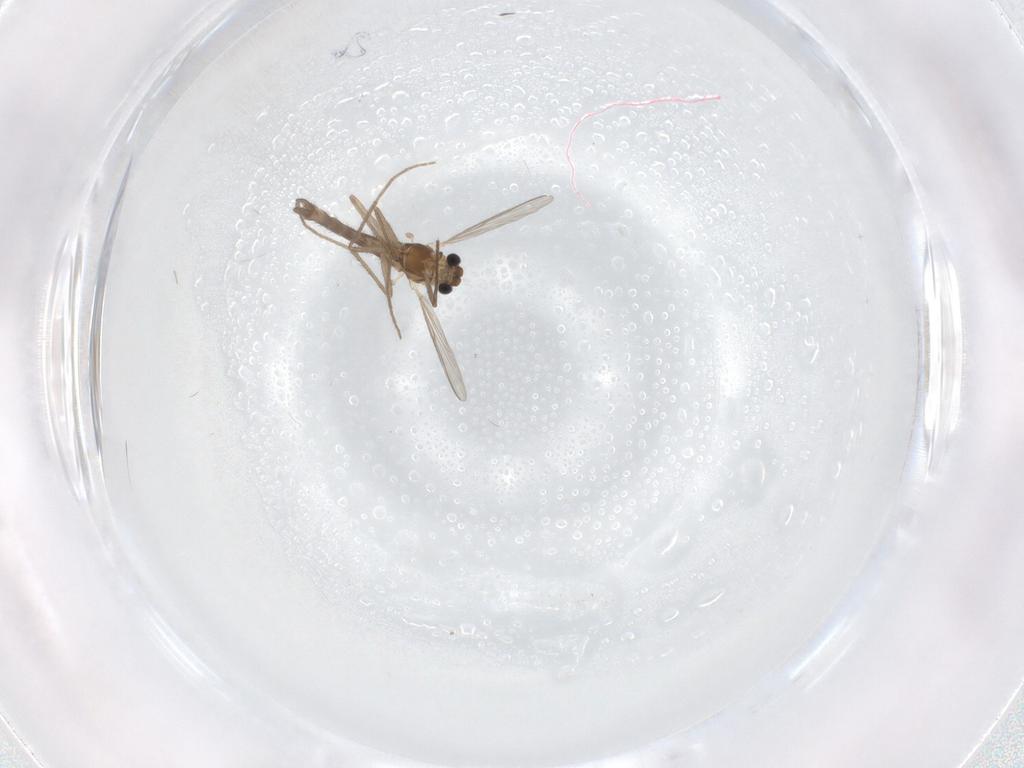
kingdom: Animalia
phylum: Arthropoda
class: Insecta
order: Diptera
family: Chironomidae
